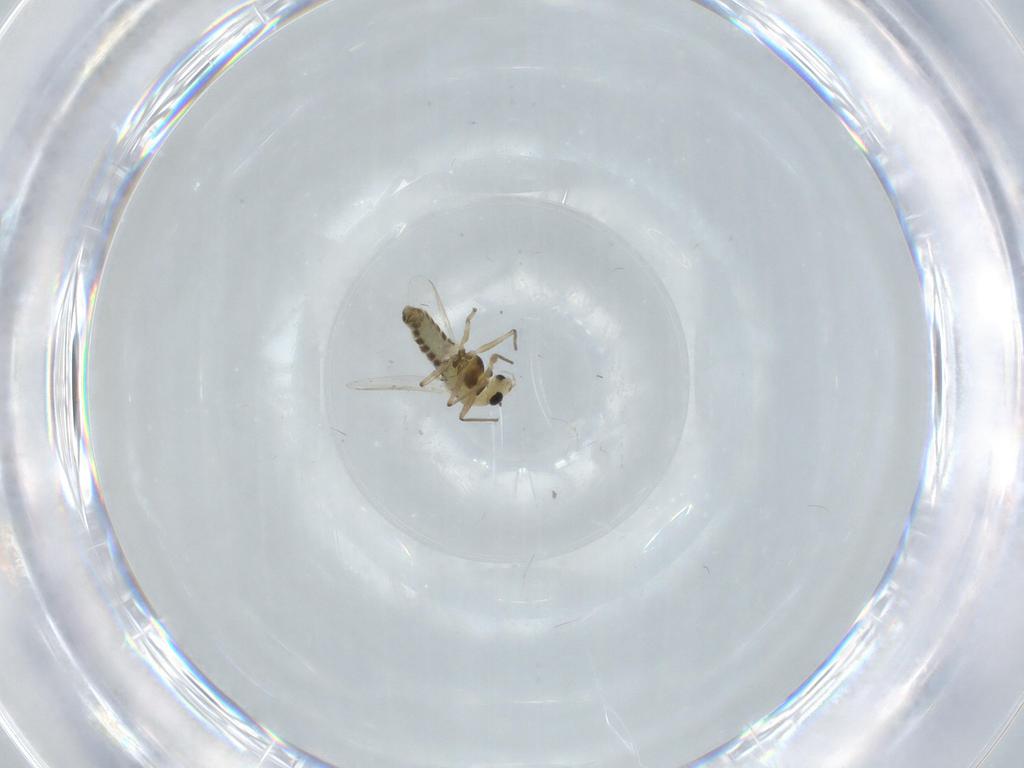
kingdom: Animalia
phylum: Arthropoda
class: Insecta
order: Diptera
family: Chironomidae
